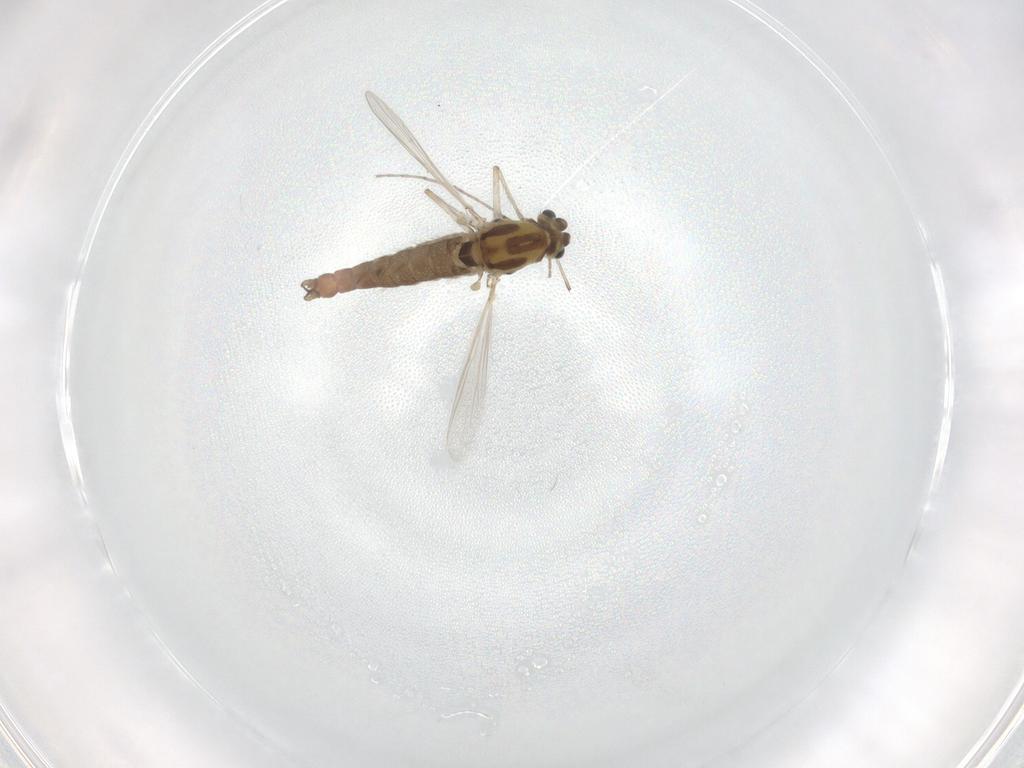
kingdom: Animalia
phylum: Arthropoda
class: Insecta
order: Diptera
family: Chironomidae
